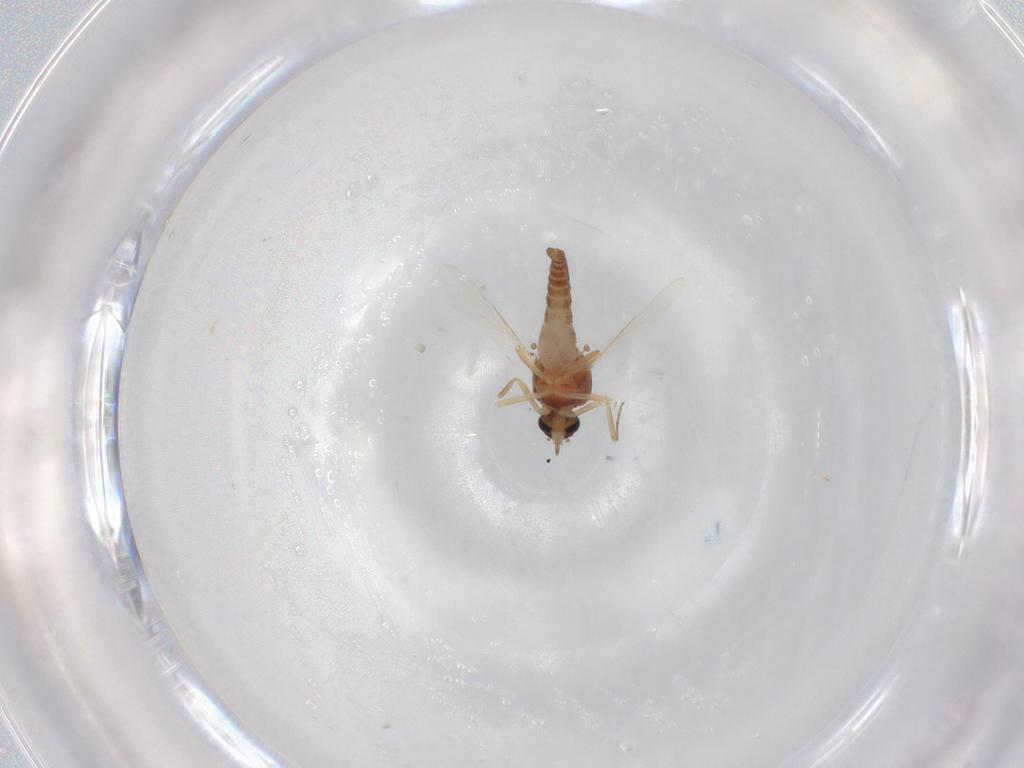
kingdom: Animalia
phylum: Arthropoda
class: Insecta
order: Diptera
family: Ceratopogonidae
